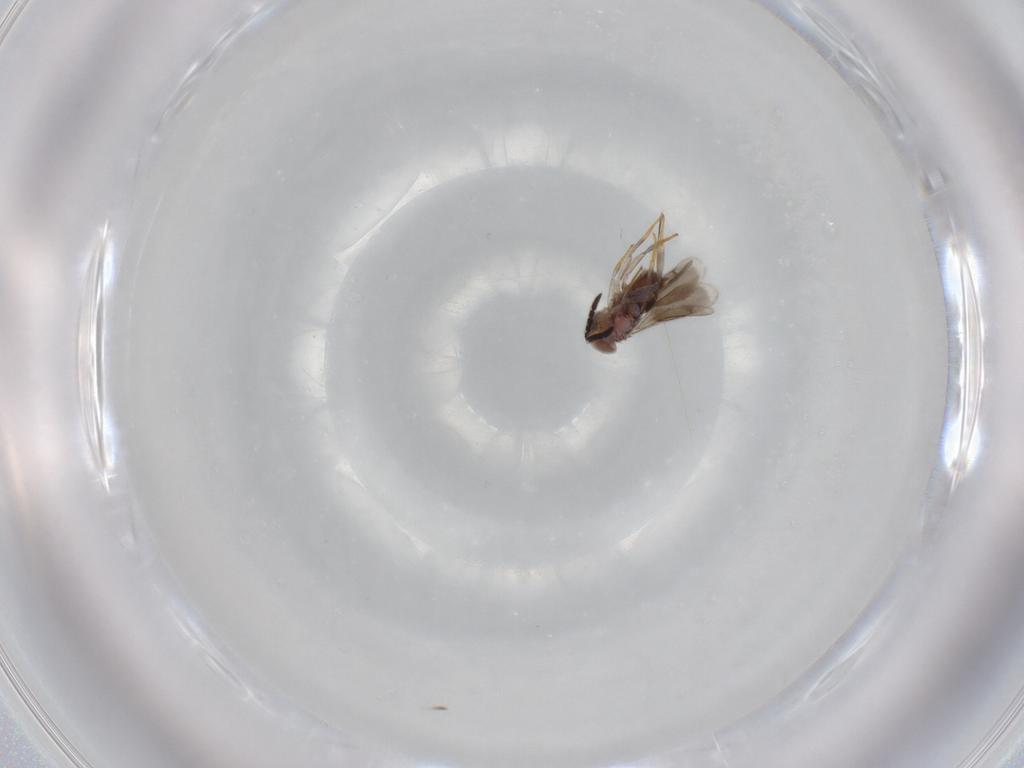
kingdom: Animalia
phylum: Arthropoda
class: Insecta
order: Hymenoptera
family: Aphelinidae
